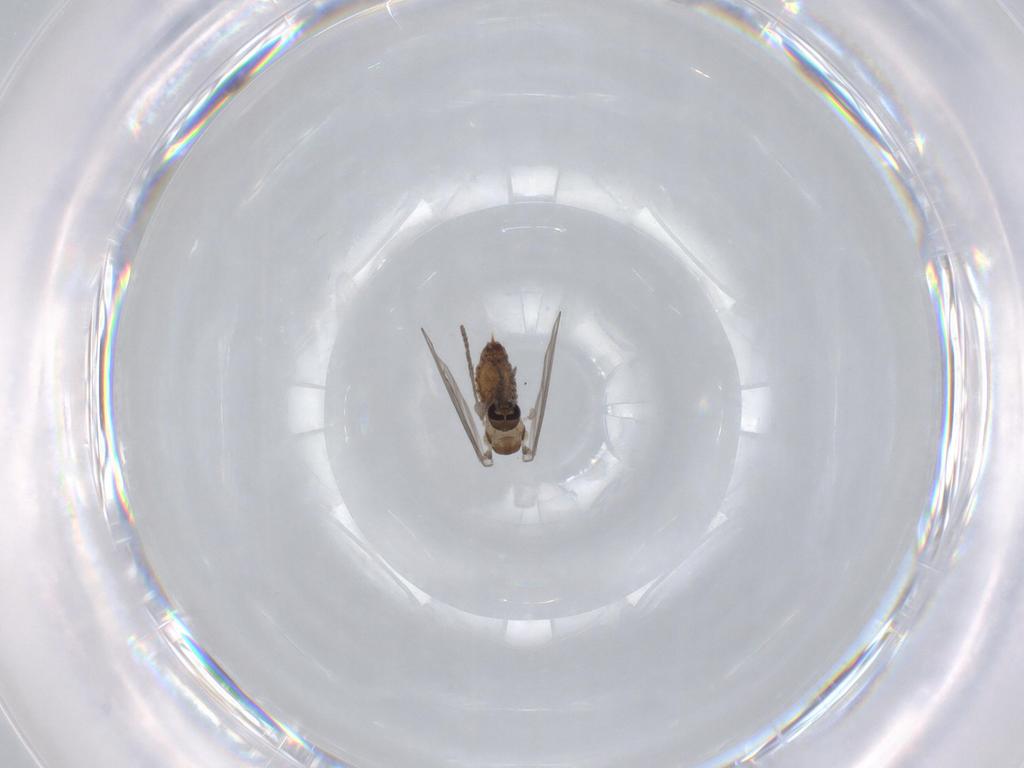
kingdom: Animalia
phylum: Arthropoda
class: Insecta
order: Diptera
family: Psychodidae
